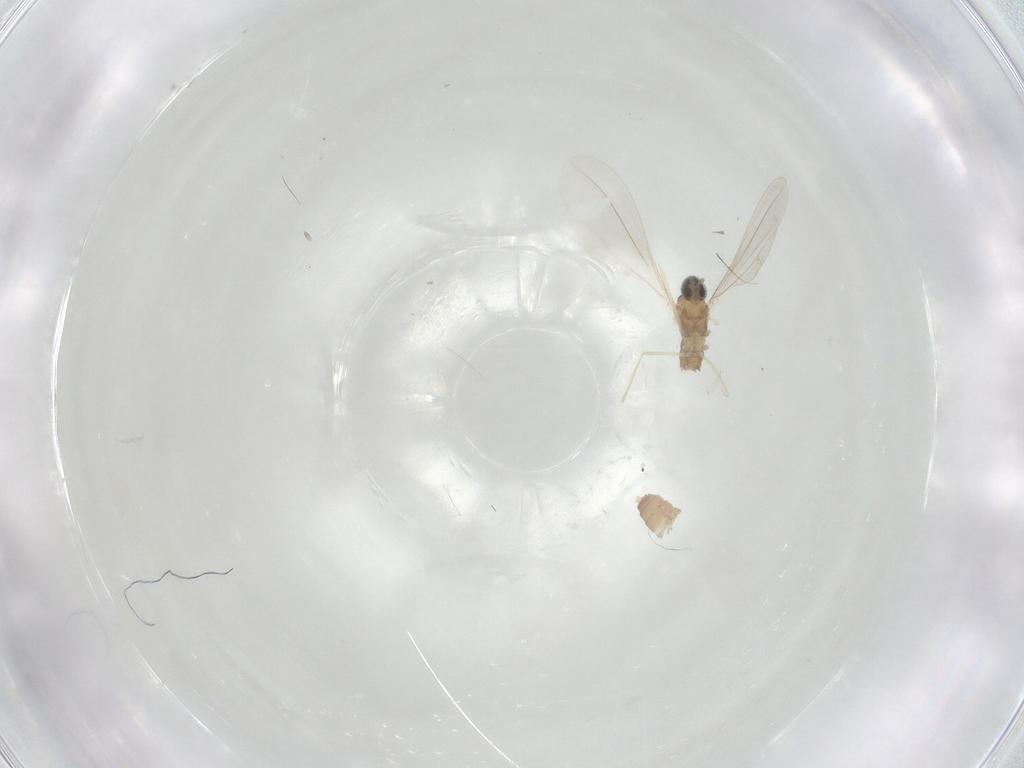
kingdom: Animalia
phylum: Arthropoda
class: Insecta
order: Diptera
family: Cecidomyiidae
